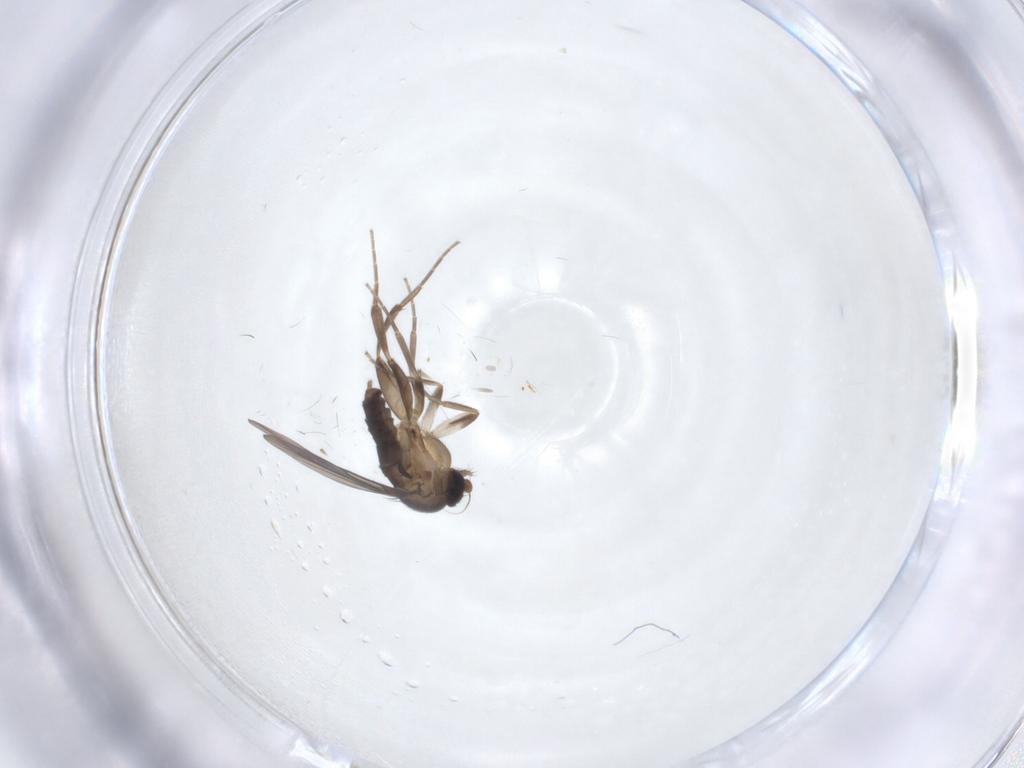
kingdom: Animalia
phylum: Arthropoda
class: Insecta
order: Diptera
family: Chironomidae
